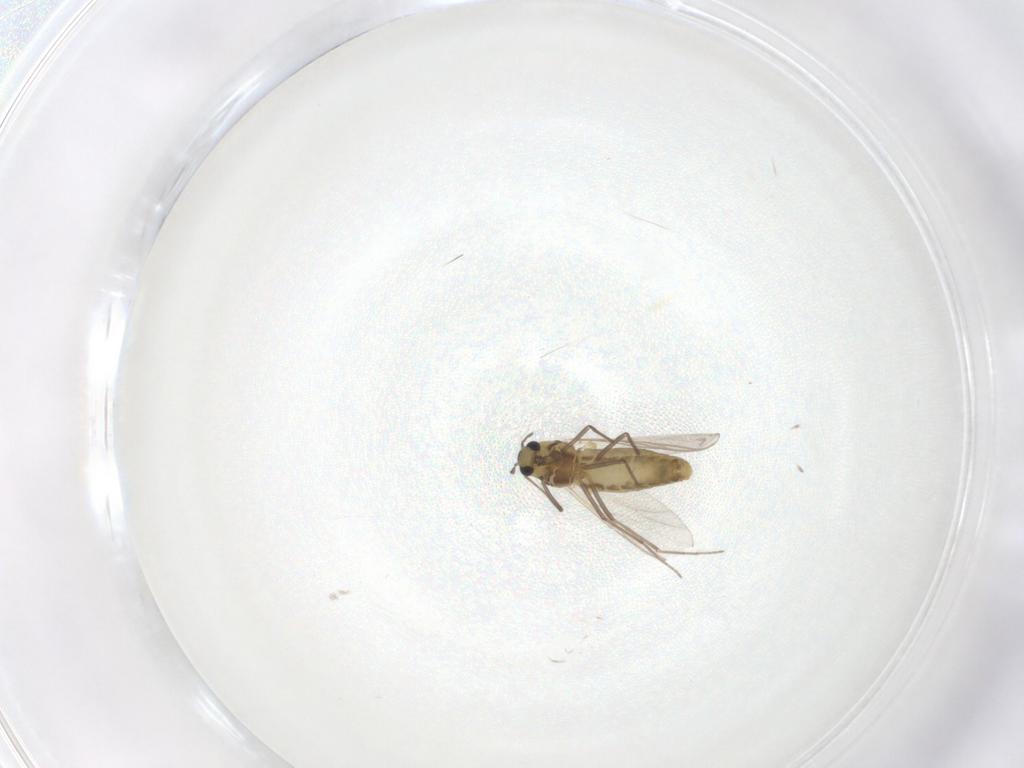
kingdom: Animalia
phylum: Arthropoda
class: Insecta
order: Diptera
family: Chironomidae
